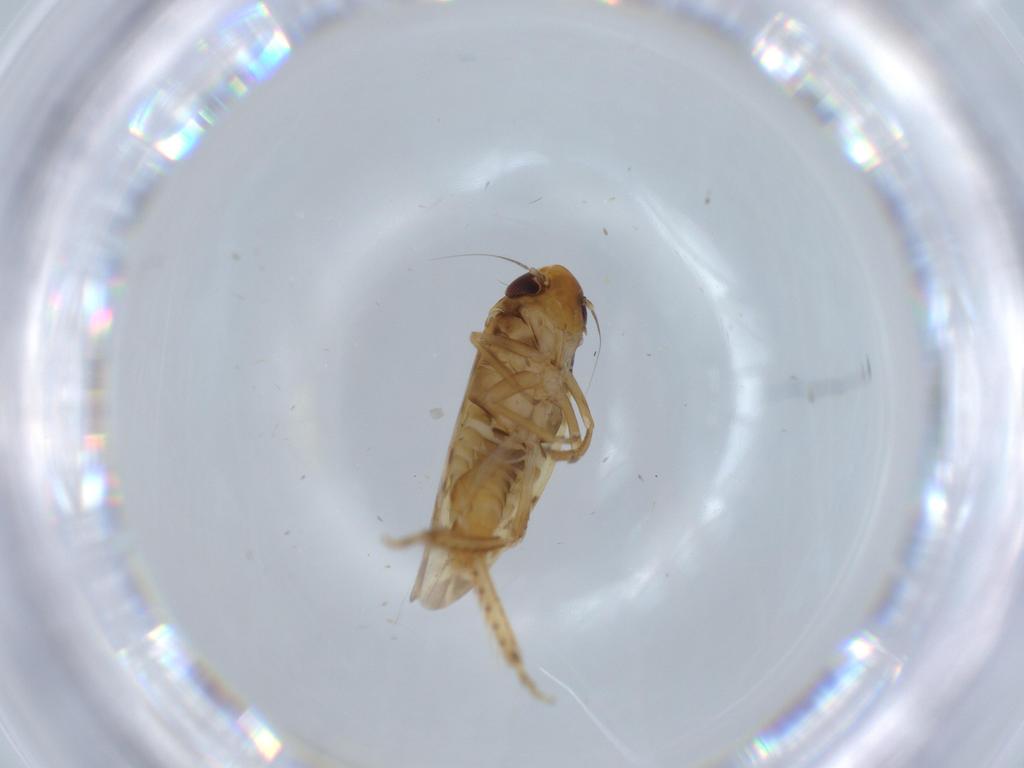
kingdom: Animalia
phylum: Arthropoda
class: Insecta
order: Hemiptera
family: Cicadellidae
